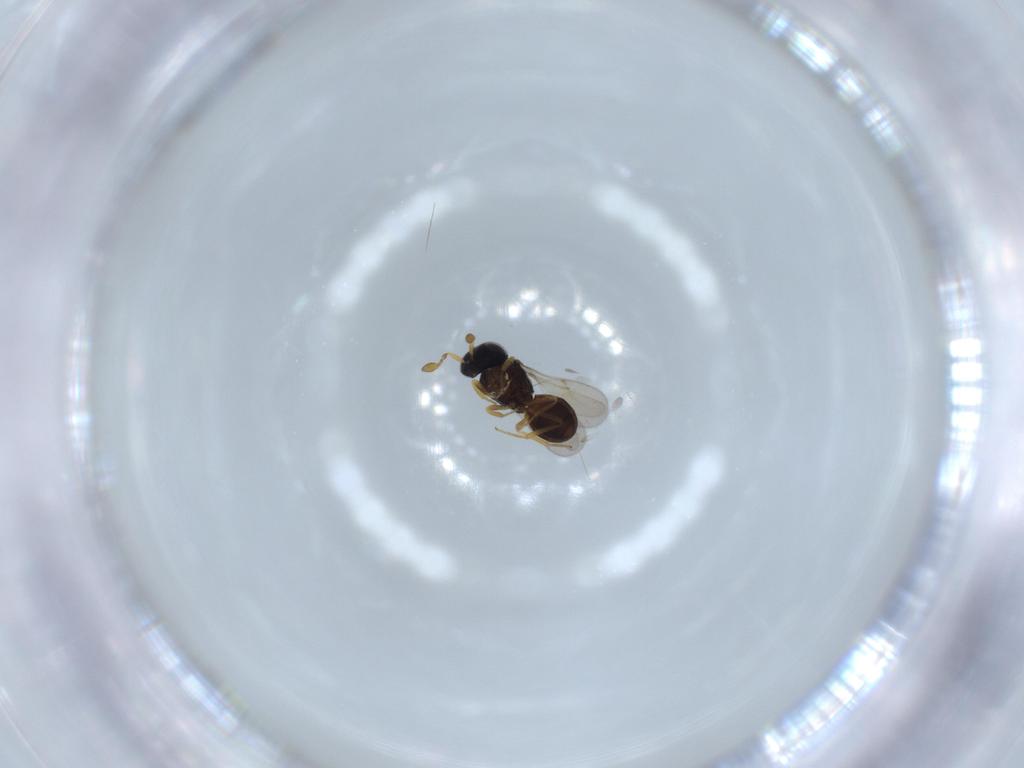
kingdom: Animalia
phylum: Arthropoda
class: Insecta
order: Hymenoptera
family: Scelionidae
